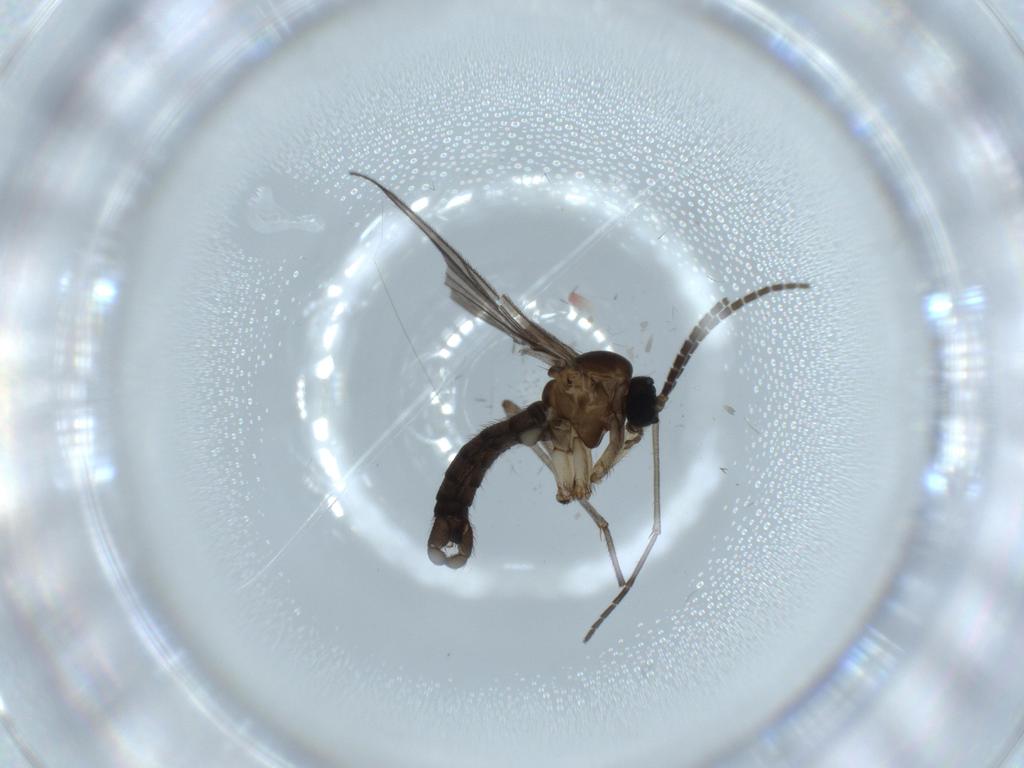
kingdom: Animalia
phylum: Arthropoda
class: Insecta
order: Diptera
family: Sciaridae
